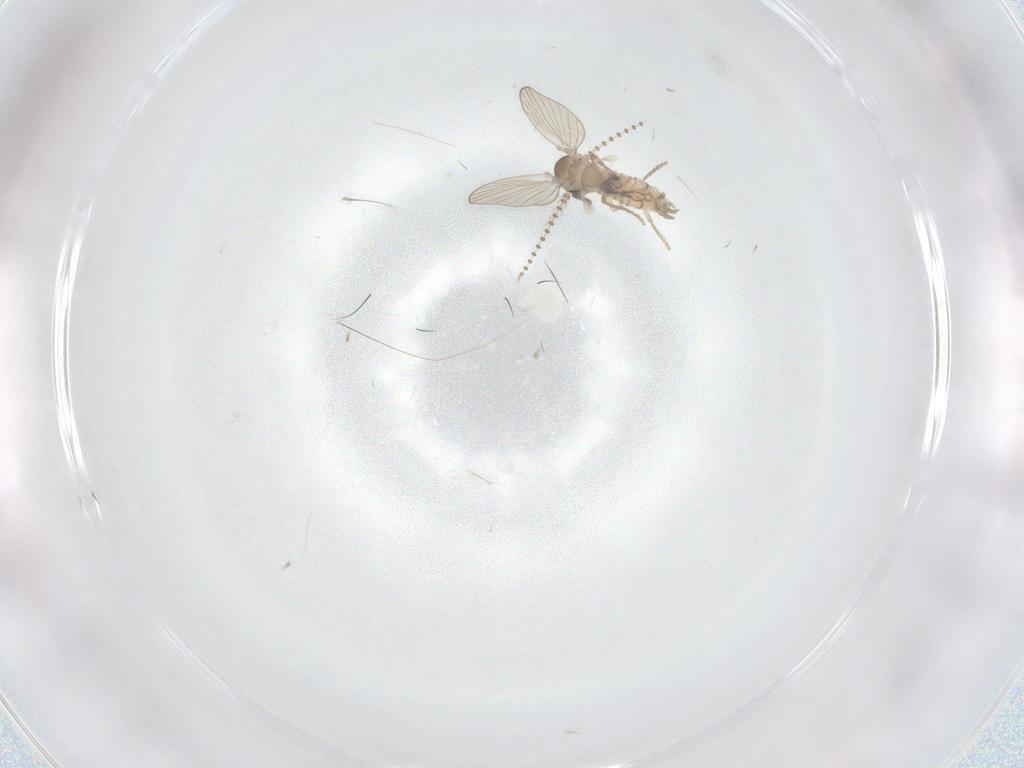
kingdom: Animalia
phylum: Arthropoda
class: Insecta
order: Diptera
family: Psychodidae
